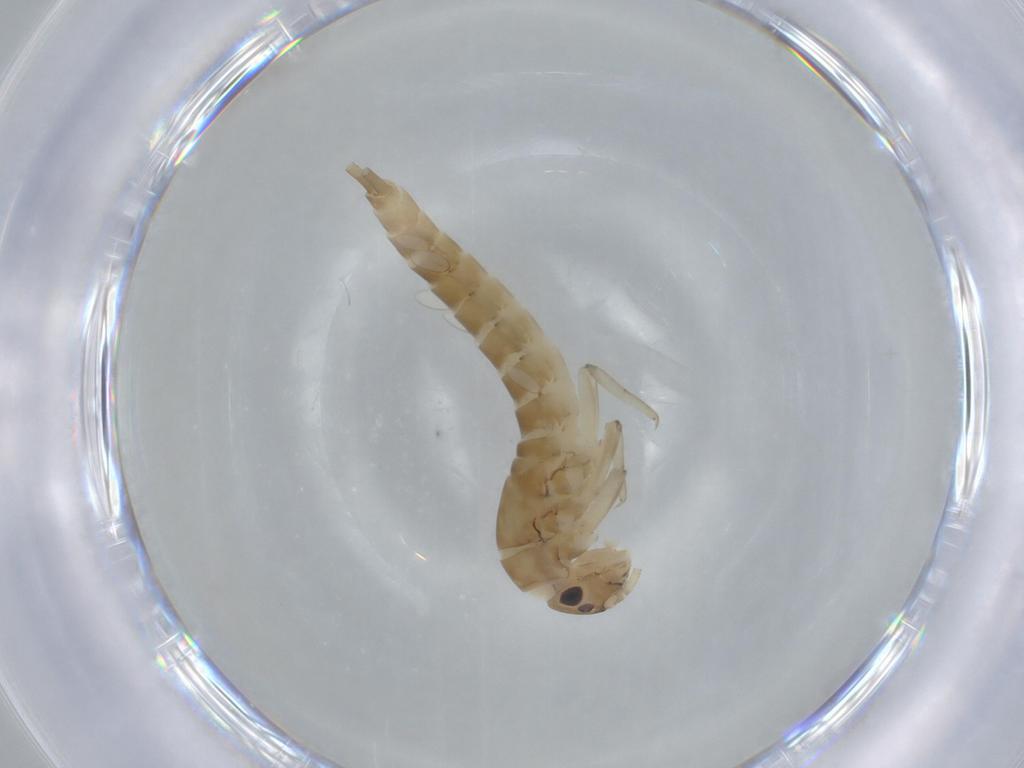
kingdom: Animalia
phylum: Arthropoda
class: Insecta
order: Ephemeroptera
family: Baetidae
